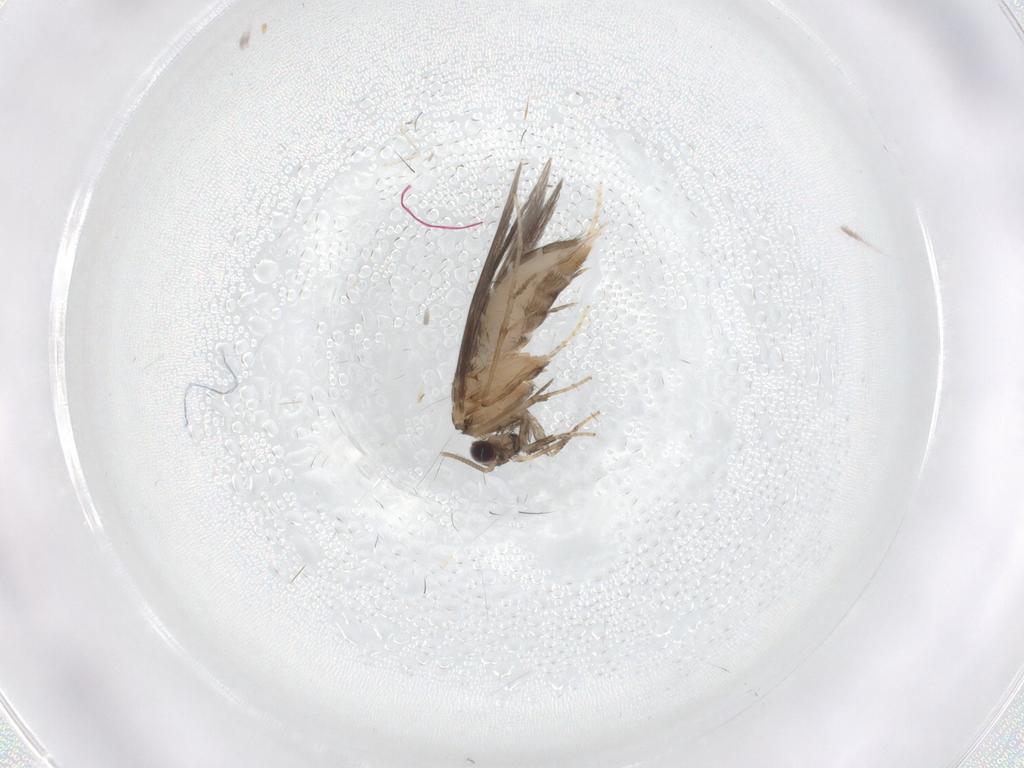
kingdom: Animalia
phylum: Arthropoda
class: Insecta
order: Trichoptera
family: Hydroptilidae
